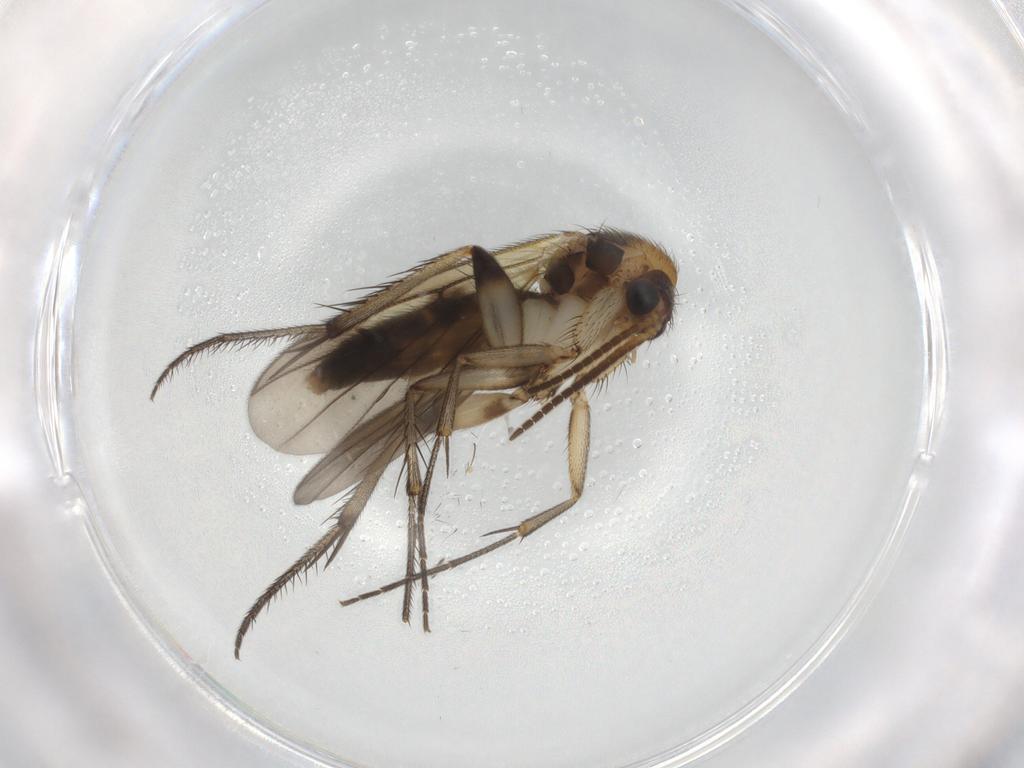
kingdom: Animalia
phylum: Arthropoda
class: Insecta
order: Diptera
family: Mycetophilidae
